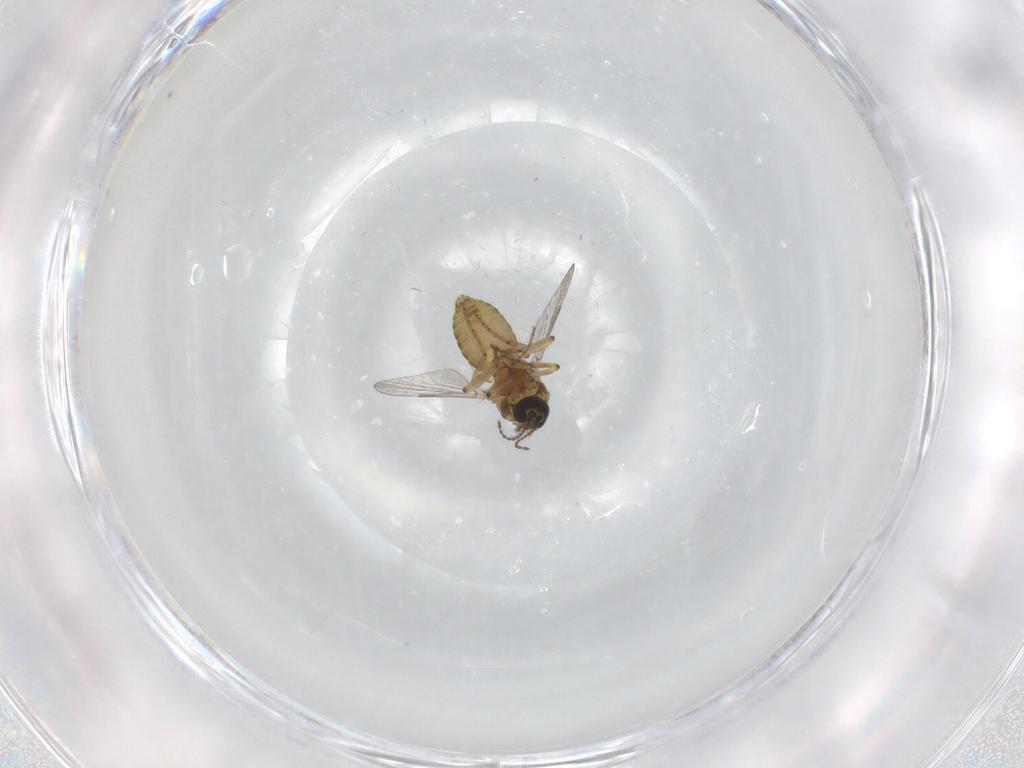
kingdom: Animalia
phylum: Arthropoda
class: Insecta
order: Diptera
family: Ceratopogonidae
